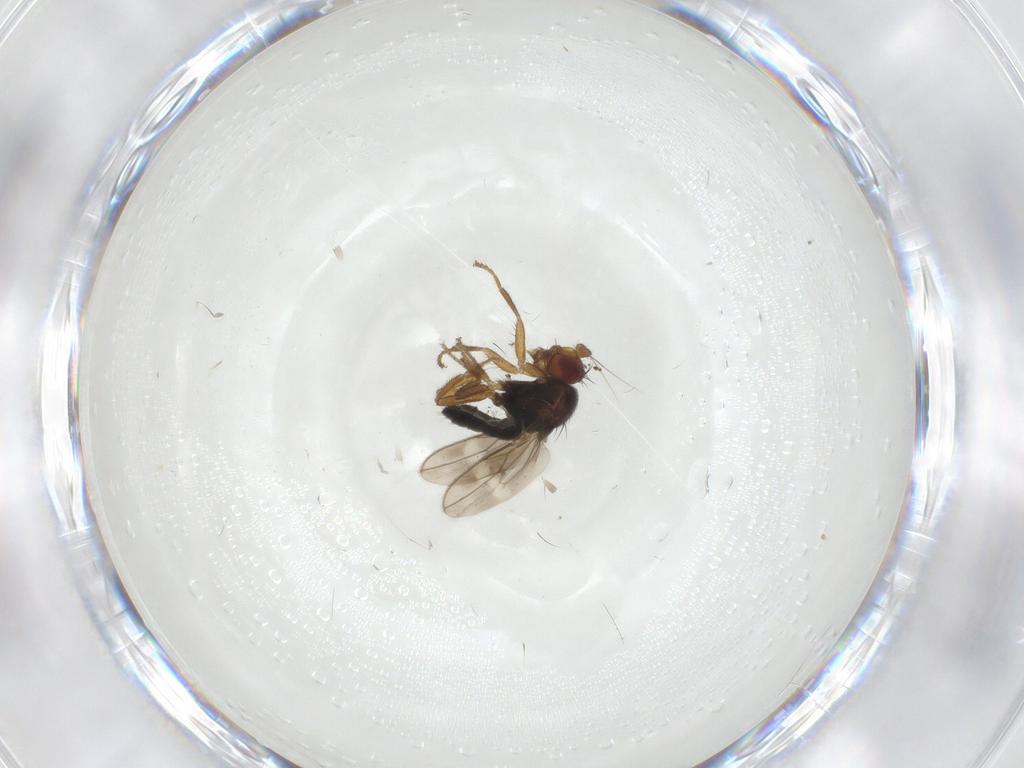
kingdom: Animalia
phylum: Arthropoda
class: Insecta
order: Diptera
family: Sphaeroceridae
